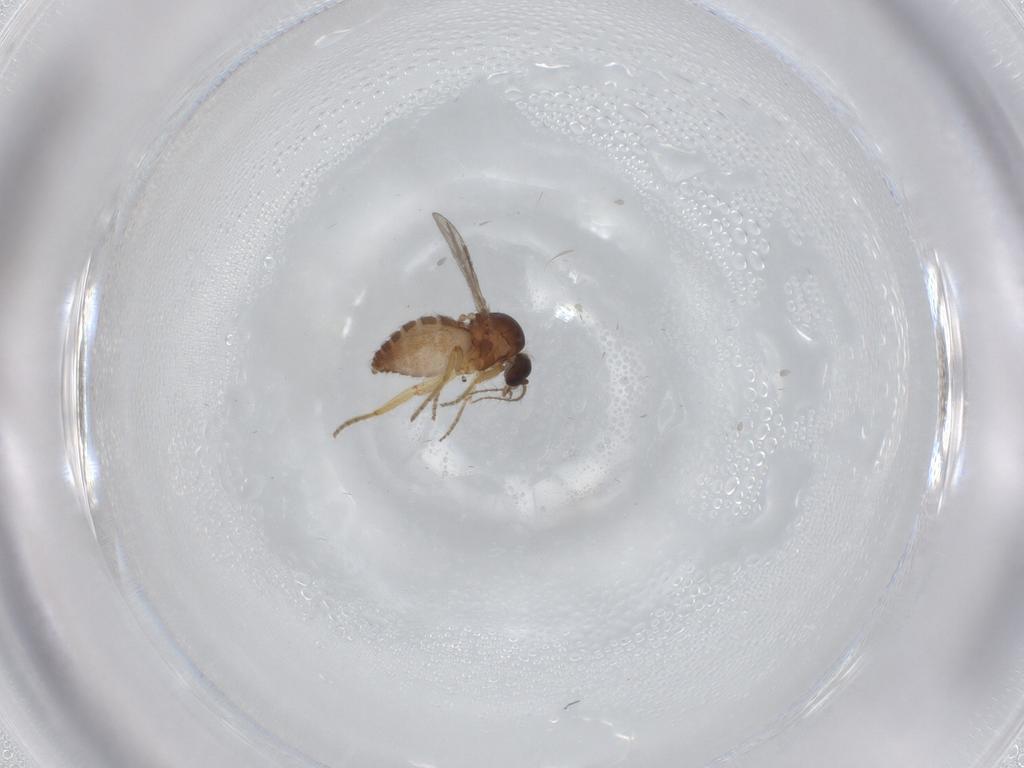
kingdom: Animalia
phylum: Arthropoda
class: Insecta
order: Diptera
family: Ceratopogonidae
